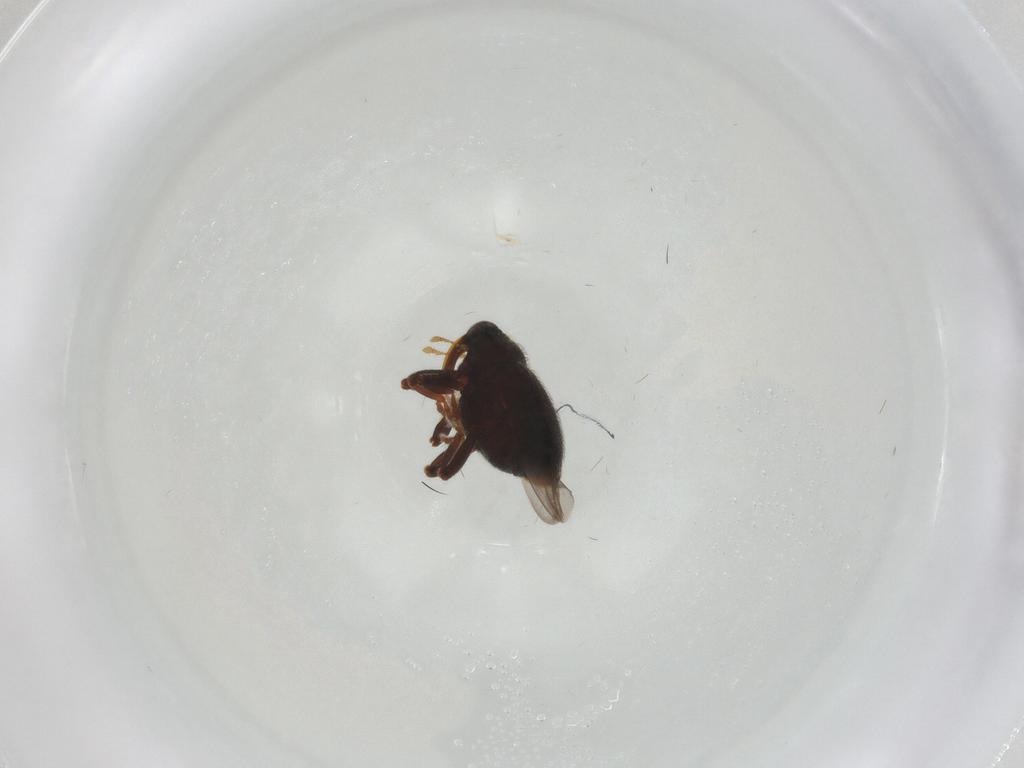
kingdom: Animalia
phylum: Arthropoda
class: Insecta
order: Coleoptera
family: Curculionidae
